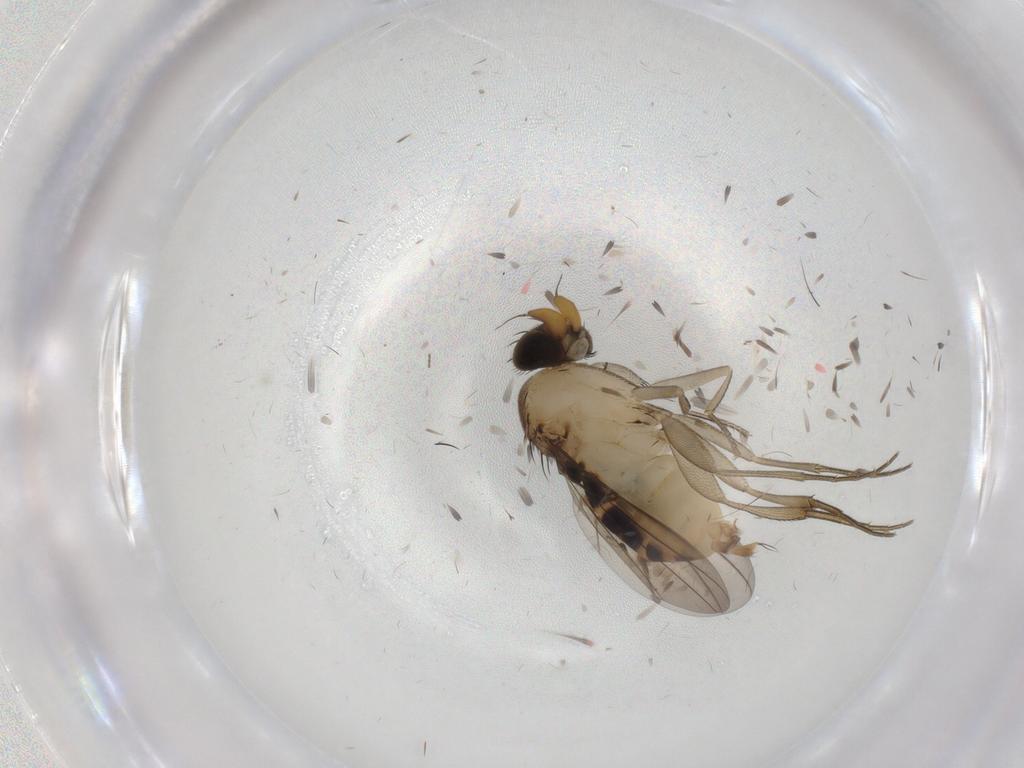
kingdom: Animalia
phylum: Arthropoda
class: Insecta
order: Diptera
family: Phoridae
